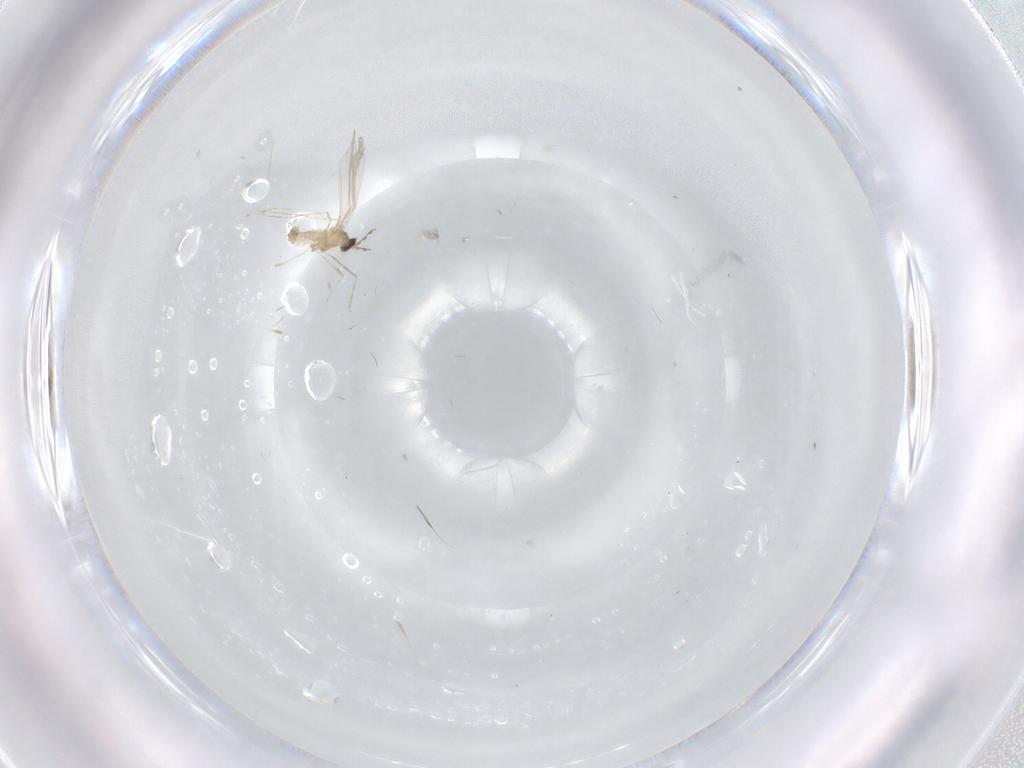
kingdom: Animalia
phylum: Arthropoda
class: Insecta
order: Diptera
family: Cecidomyiidae
